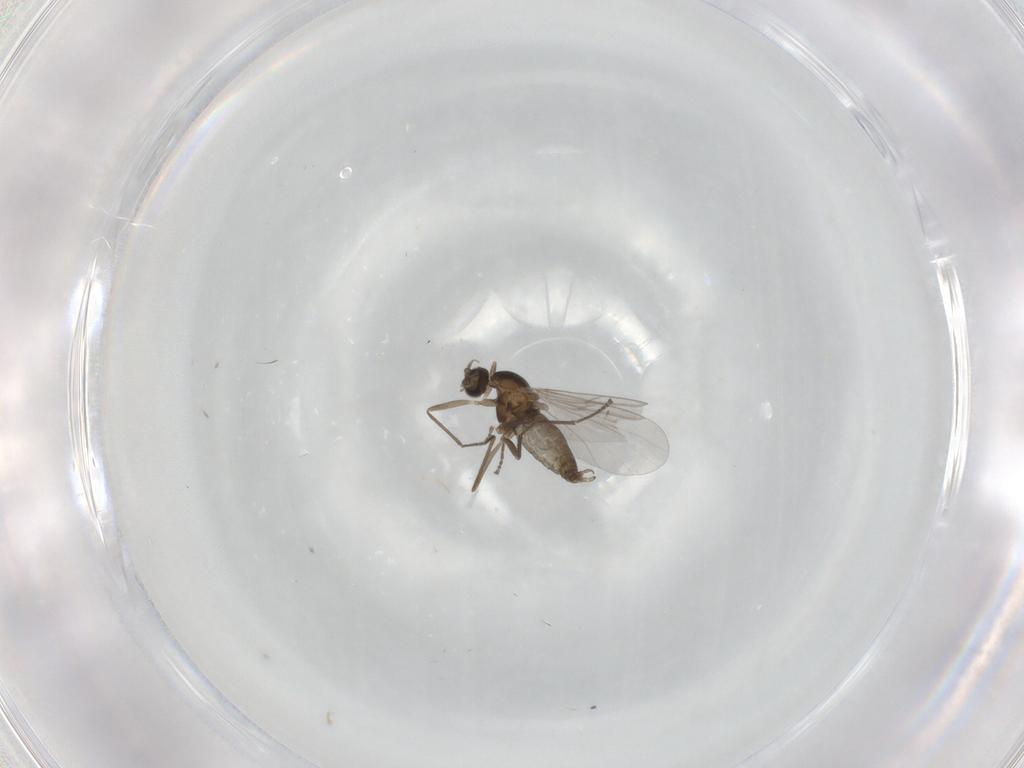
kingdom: Animalia
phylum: Arthropoda
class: Insecta
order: Diptera
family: Cecidomyiidae
